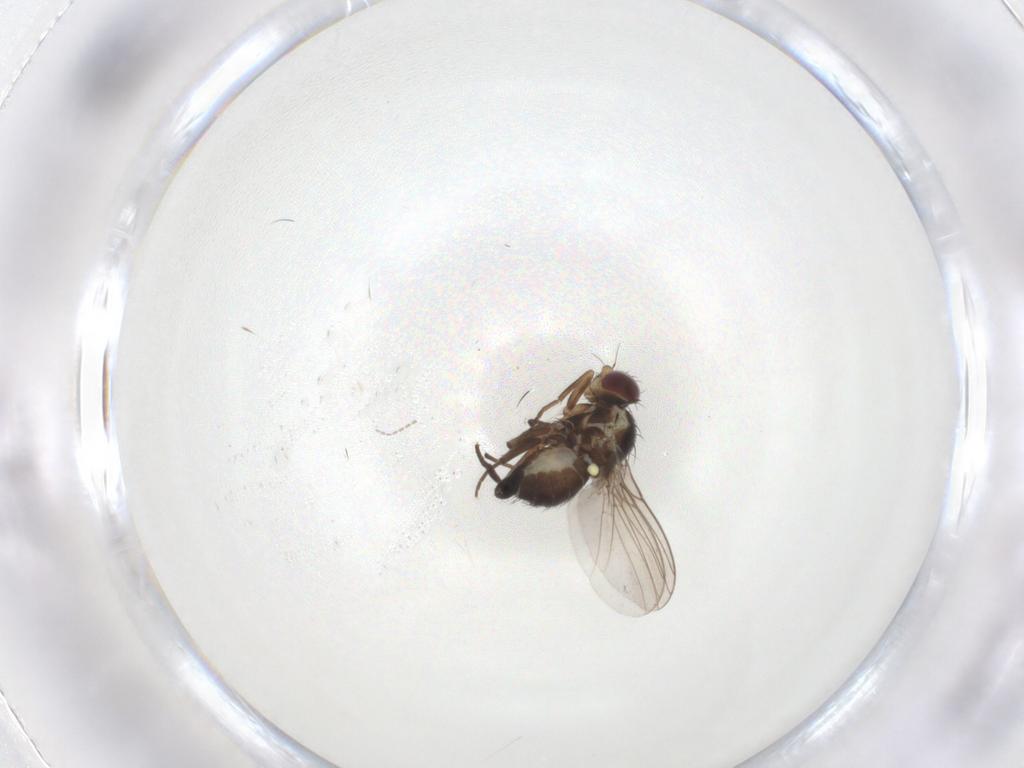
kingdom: Animalia
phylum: Arthropoda
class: Insecta
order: Diptera
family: Agromyzidae
